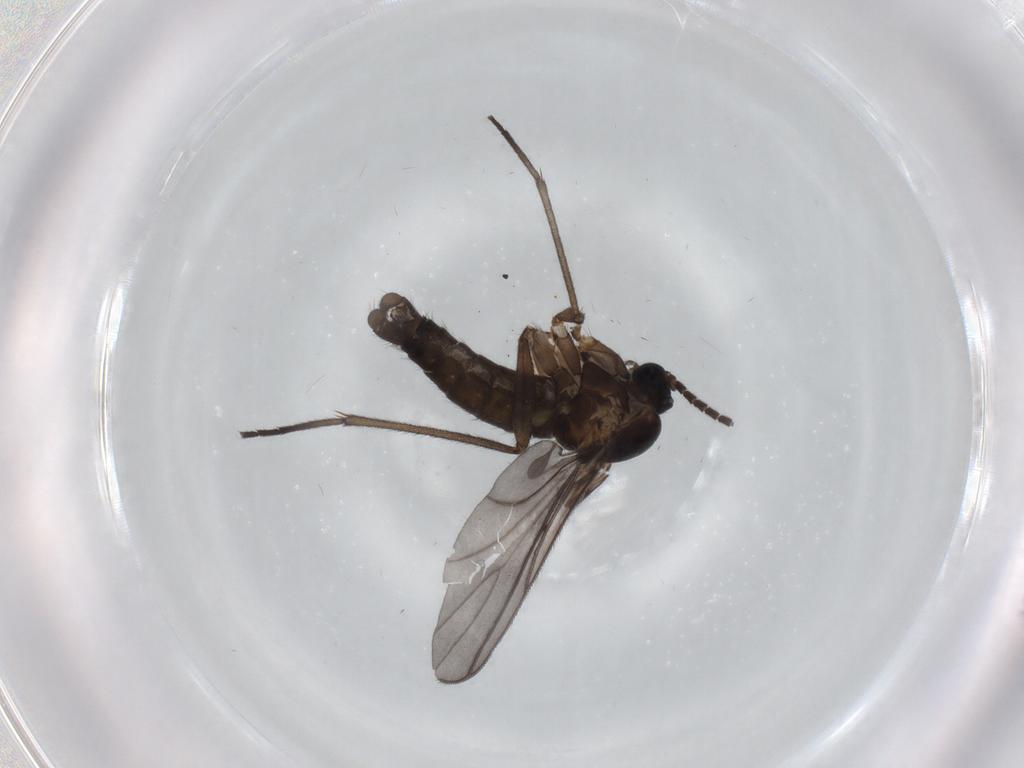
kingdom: Animalia
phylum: Arthropoda
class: Insecta
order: Diptera
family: Sciaridae
